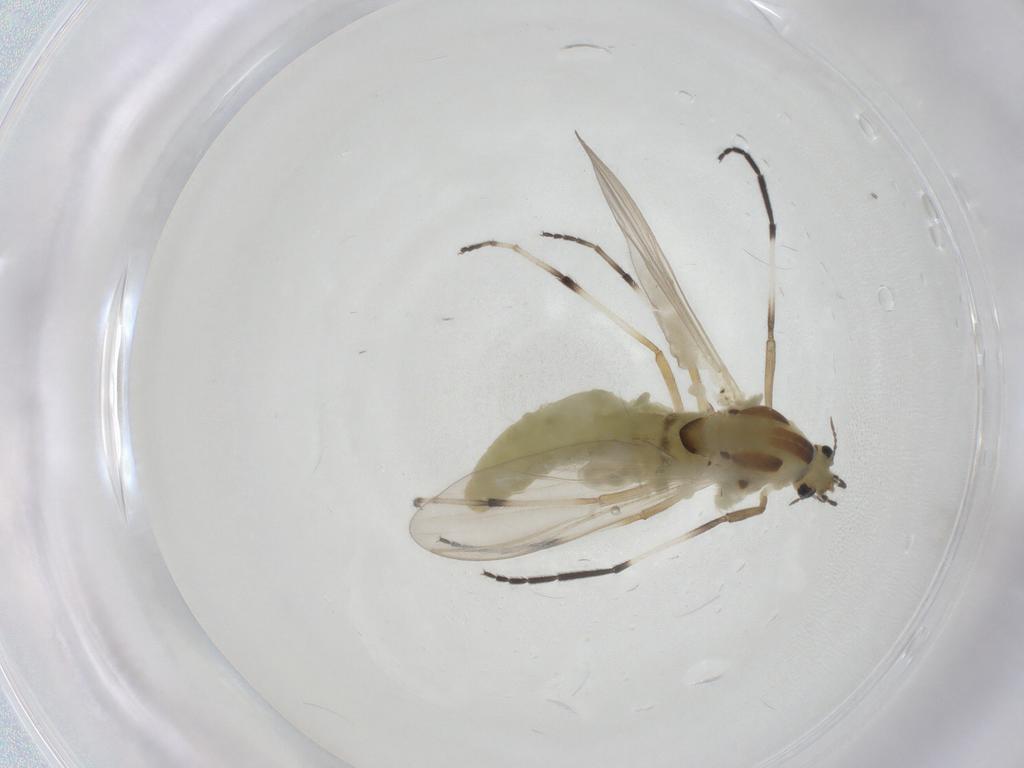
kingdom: Animalia
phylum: Arthropoda
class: Insecta
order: Diptera
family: Chironomidae
